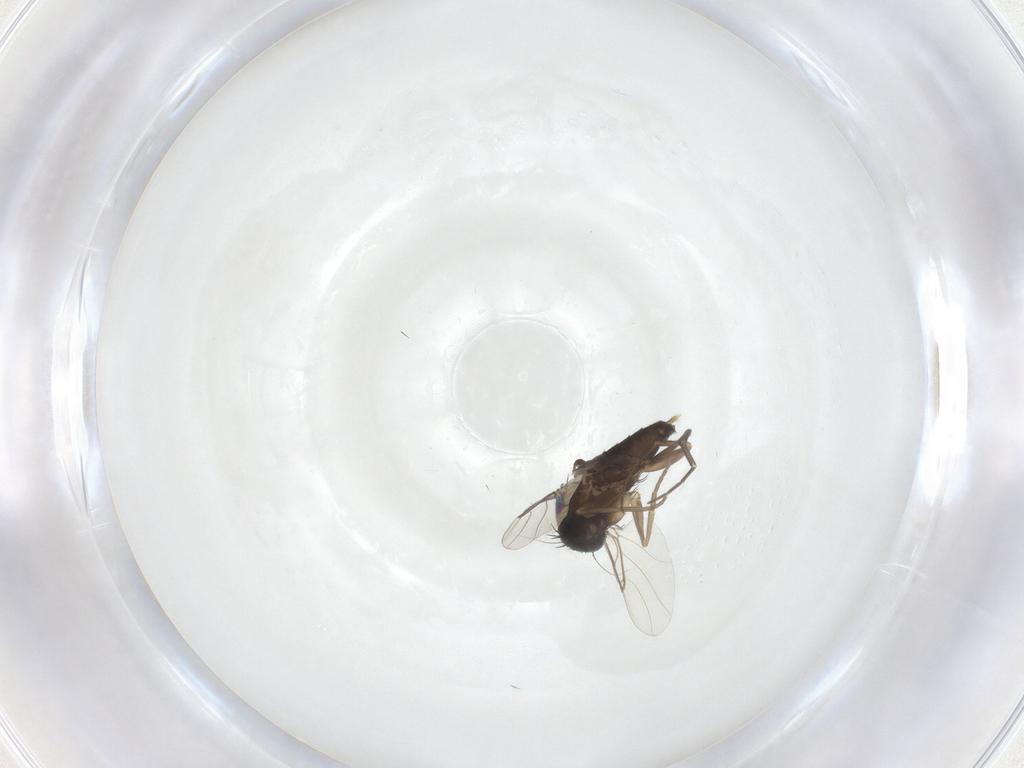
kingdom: Animalia
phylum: Arthropoda
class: Insecta
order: Diptera
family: Phoridae
